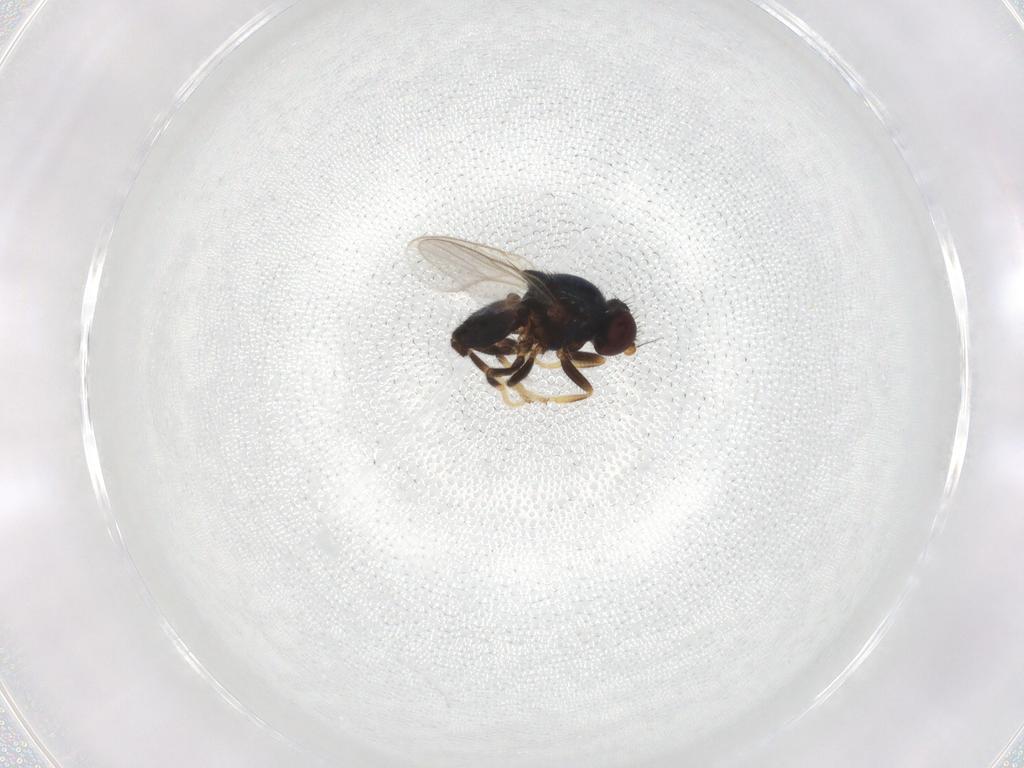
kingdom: Animalia
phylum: Arthropoda
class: Insecta
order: Diptera
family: Chloropidae
